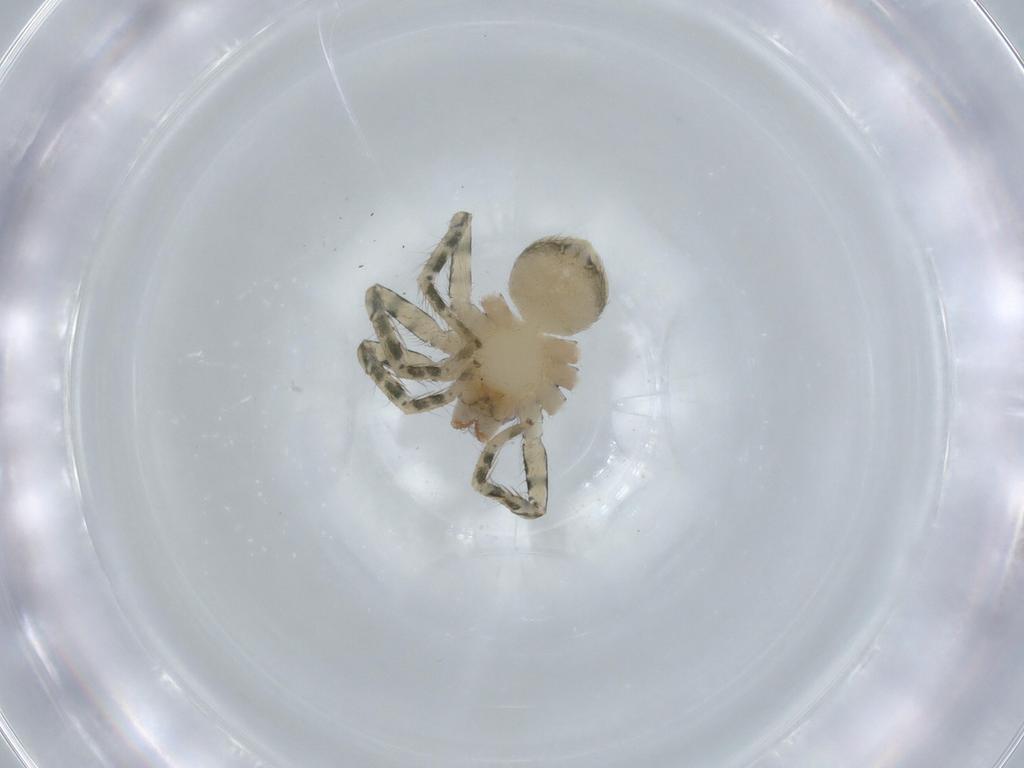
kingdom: Animalia
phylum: Arthropoda
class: Arachnida
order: Araneae
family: Selenopidae
